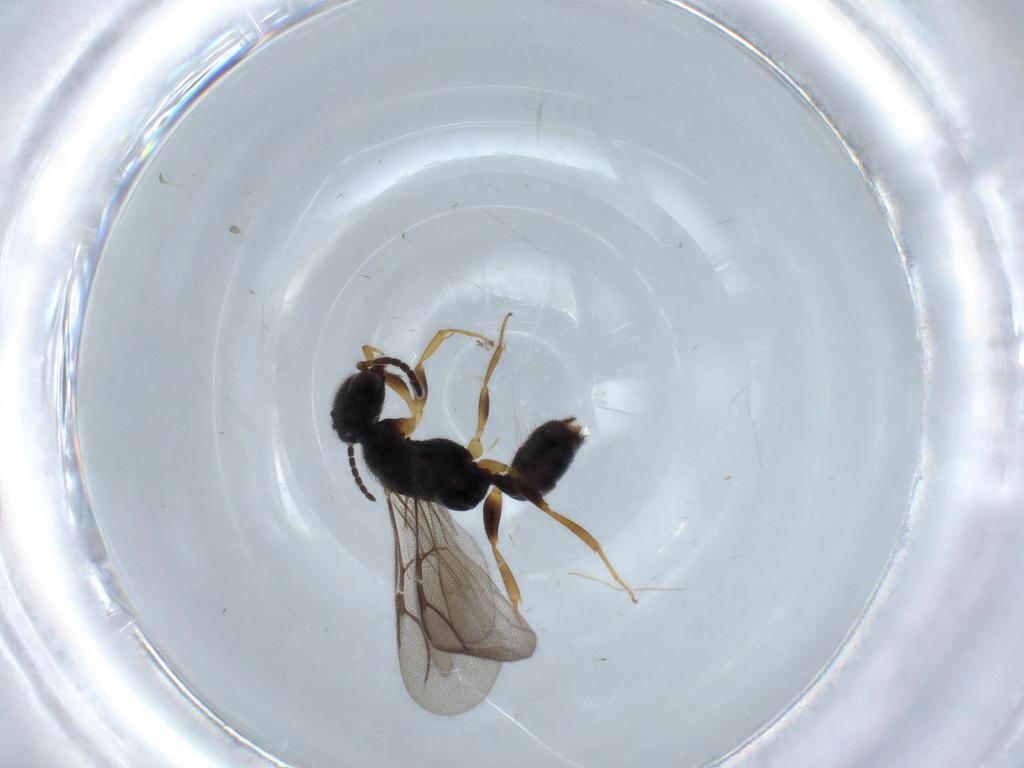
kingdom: Animalia
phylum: Arthropoda
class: Insecta
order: Hymenoptera
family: Bethylidae
